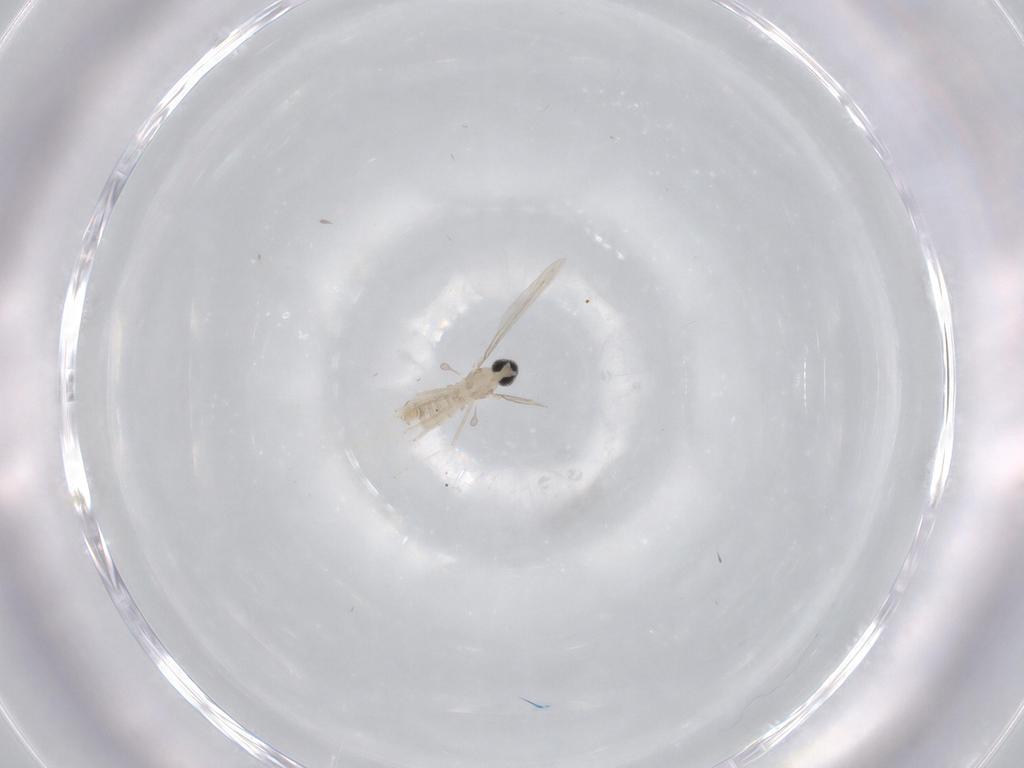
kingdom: Animalia
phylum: Arthropoda
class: Insecta
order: Diptera
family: Cecidomyiidae
